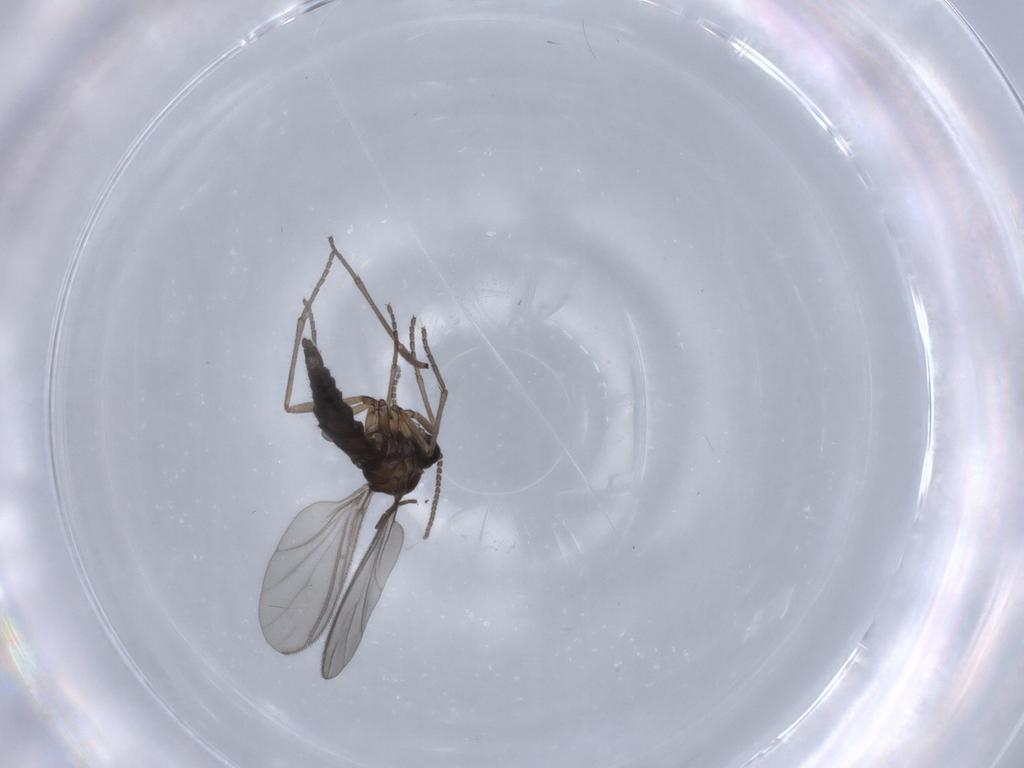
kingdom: Animalia
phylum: Arthropoda
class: Insecta
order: Diptera
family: Sciaridae
